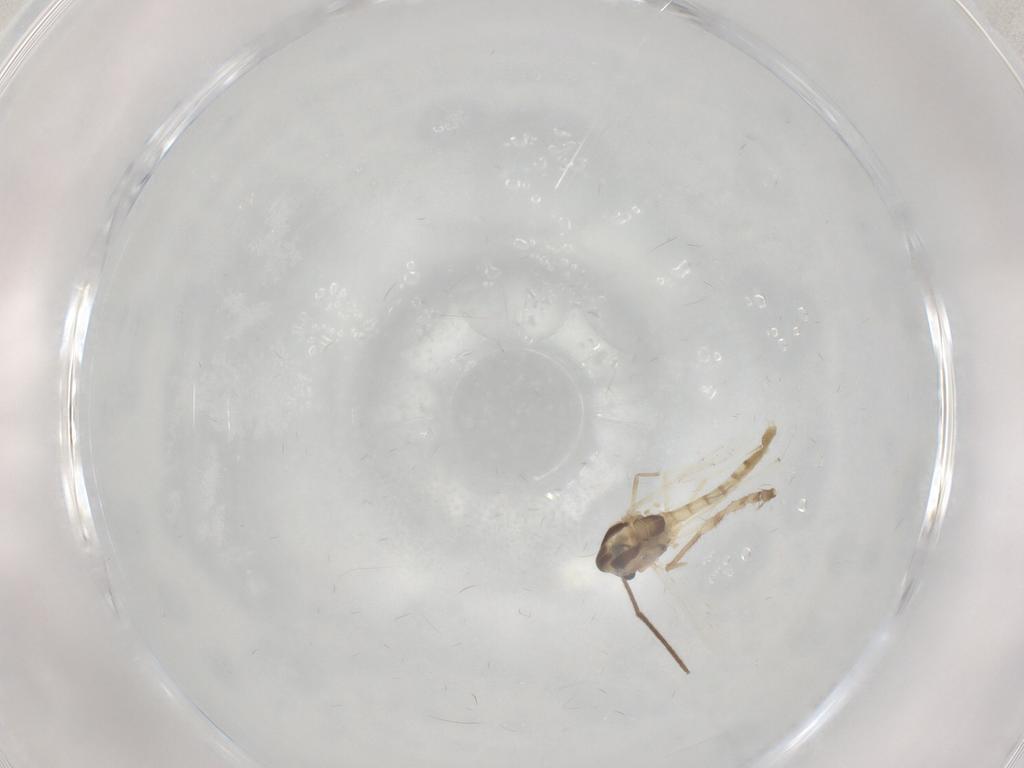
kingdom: Animalia
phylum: Arthropoda
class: Insecta
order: Diptera
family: Chironomidae
